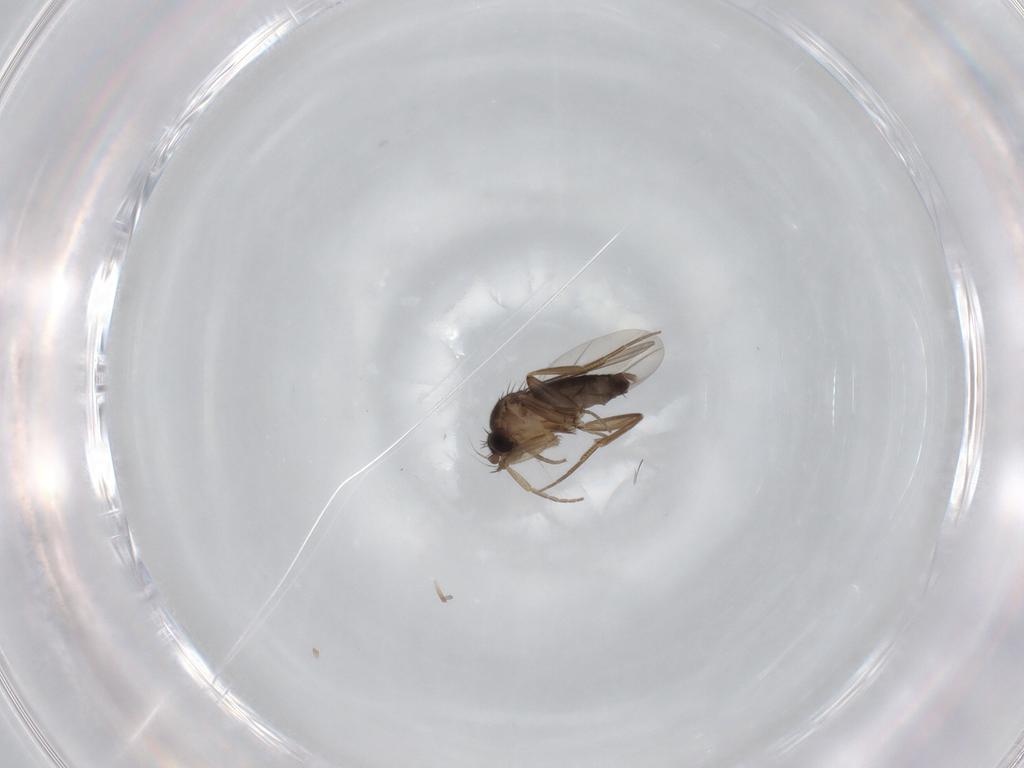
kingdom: Animalia
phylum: Arthropoda
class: Insecta
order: Diptera
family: Phoridae
